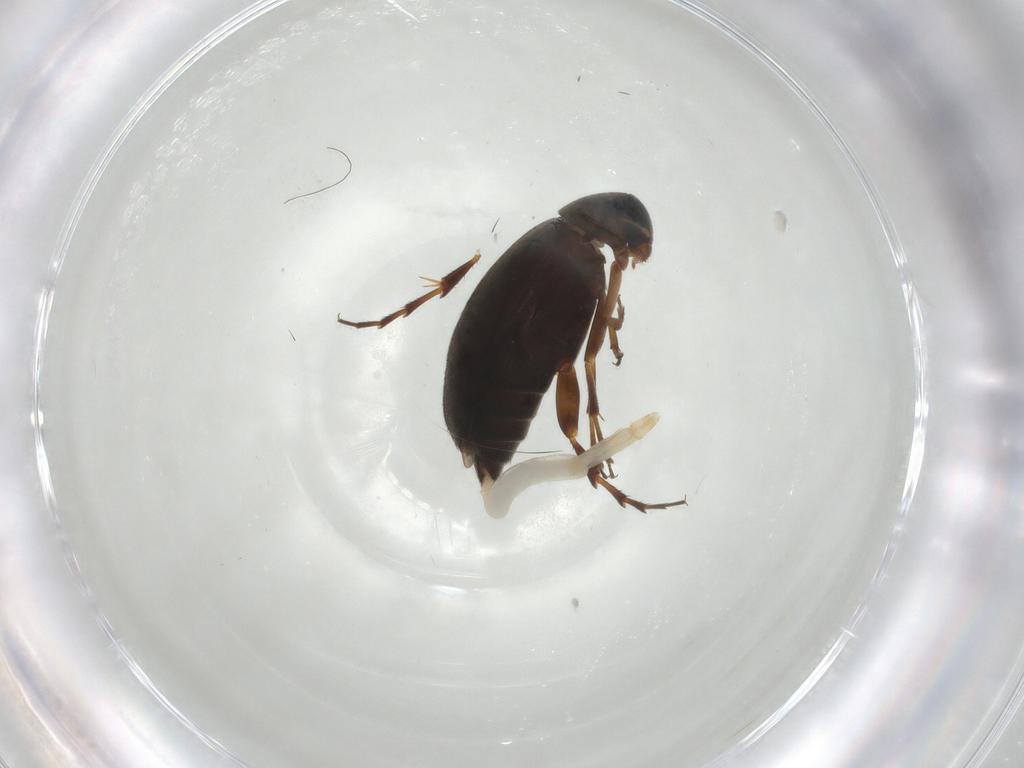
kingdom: Animalia
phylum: Arthropoda
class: Insecta
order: Coleoptera
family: Scraptiidae
